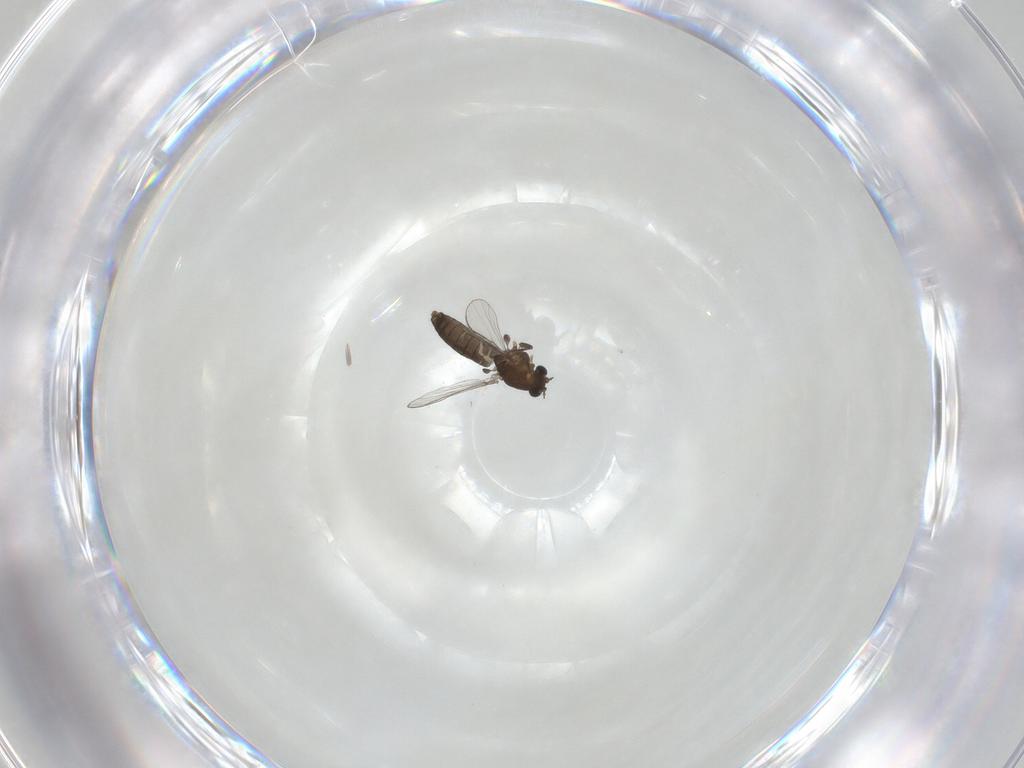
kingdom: Animalia
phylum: Arthropoda
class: Insecta
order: Diptera
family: Chironomidae
